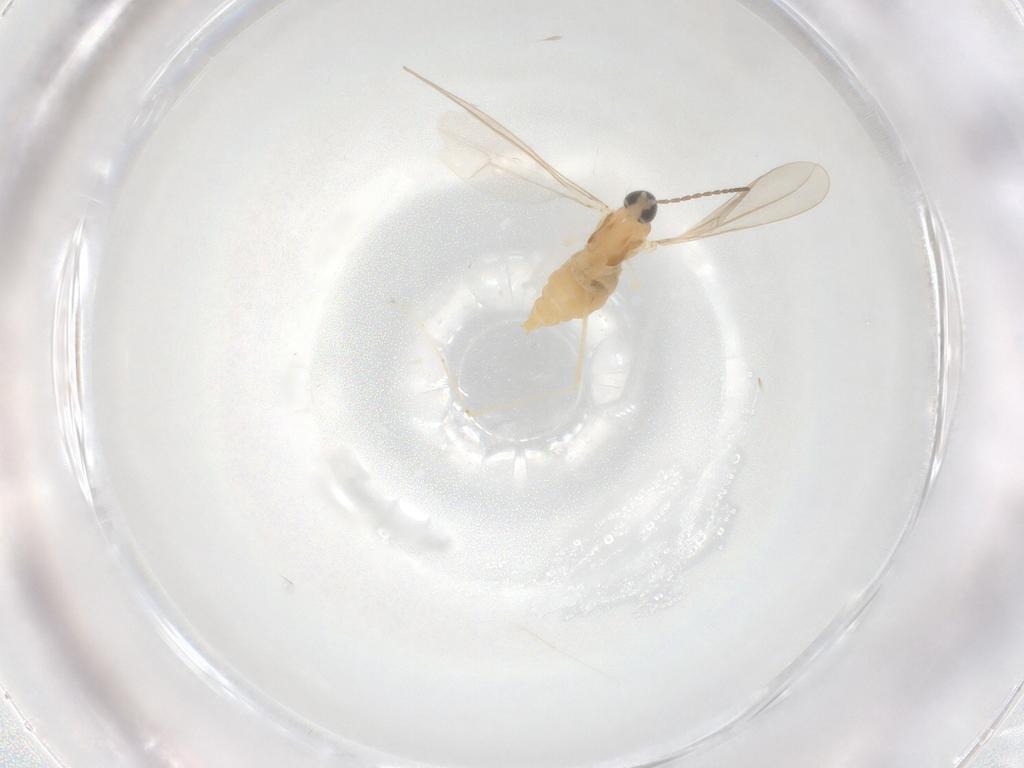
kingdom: Animalia
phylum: Arthropoda
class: Insecta
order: Diptera
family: Cecidomyiidae
